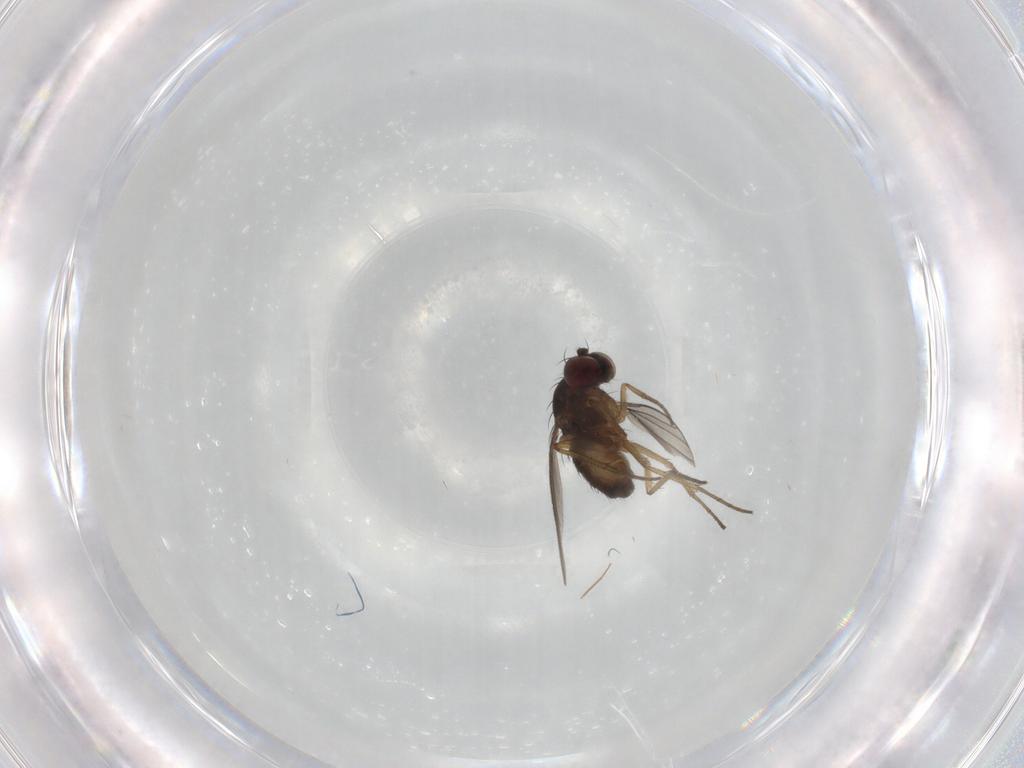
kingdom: Animalia
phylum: Arthropoda
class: Insecta
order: Diptera
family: Dolichopodidae
